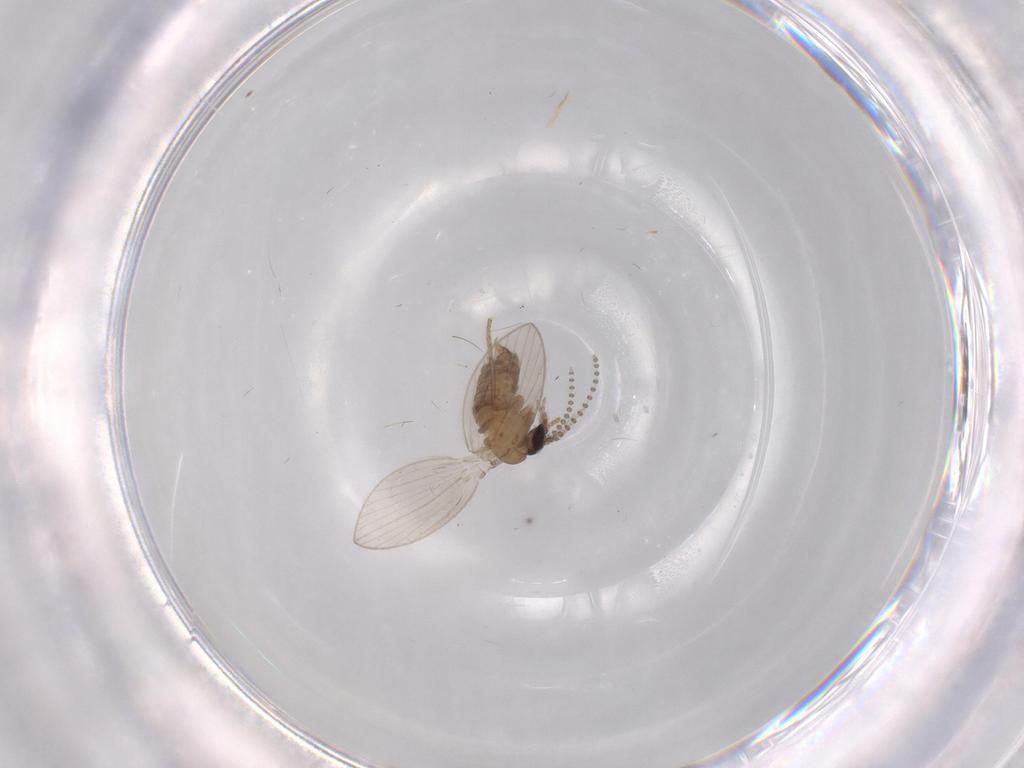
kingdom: Animalia
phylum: Arthropoda
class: Insecta
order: Diptera
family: Psychodidae
